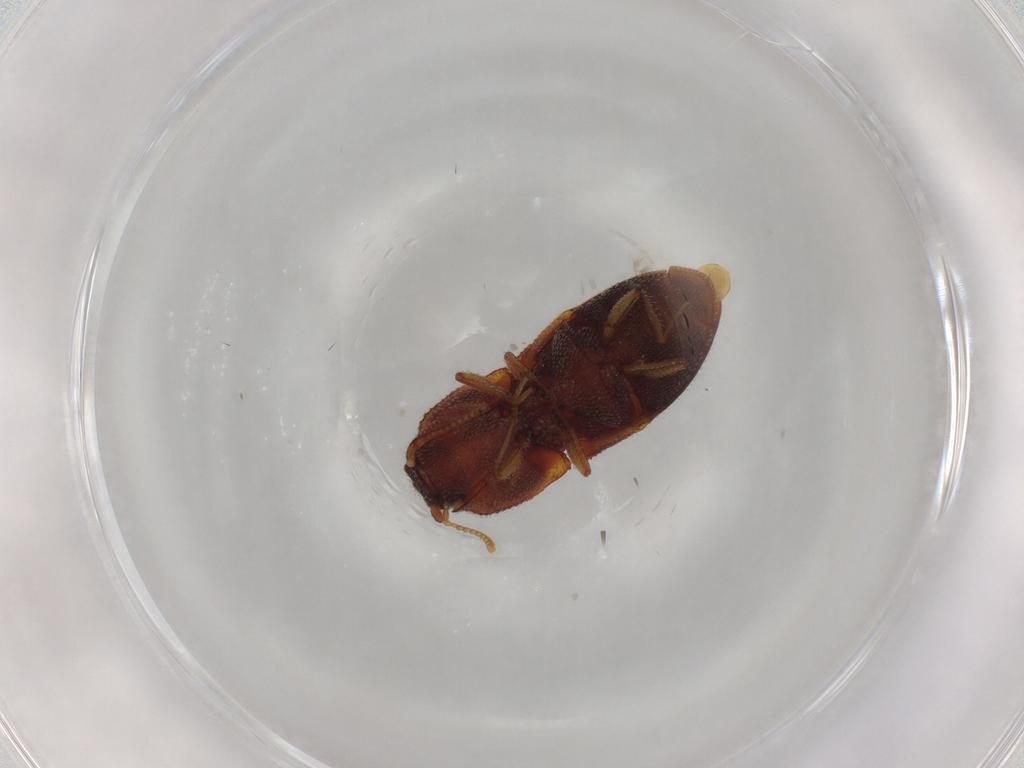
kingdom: Animalia
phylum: Arthropoda
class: Insecta
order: Coleoptera
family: Elateridae
